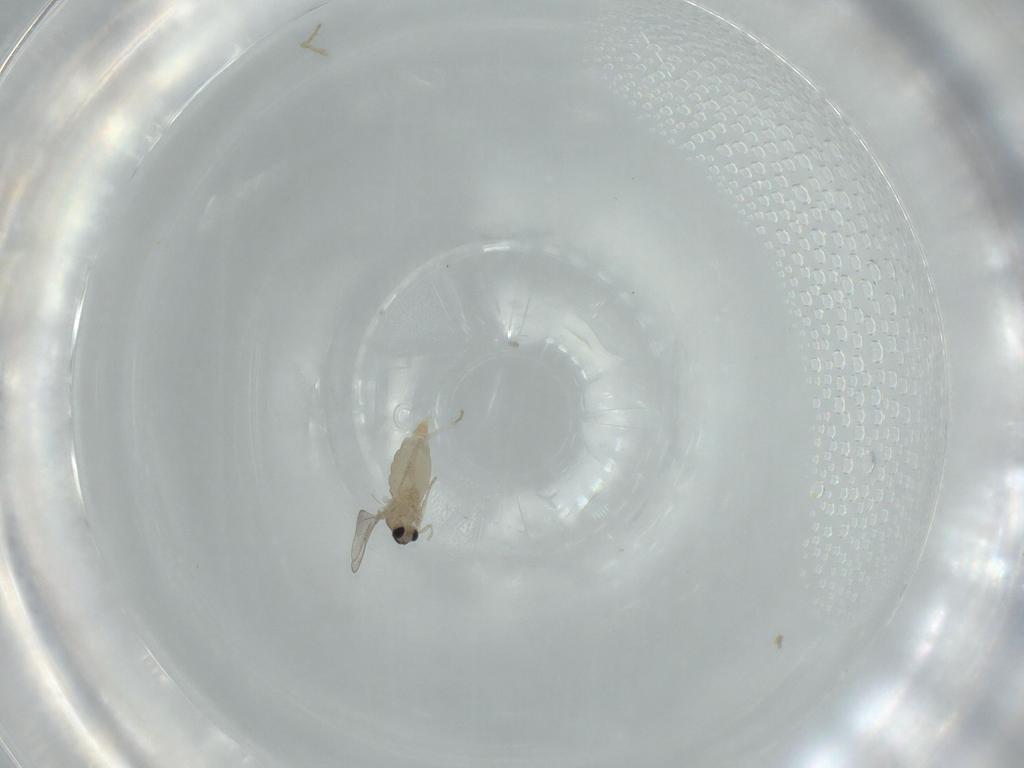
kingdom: Animalia
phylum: Arthropoda
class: Insecta
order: Diptera
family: Cecidomyiidae
